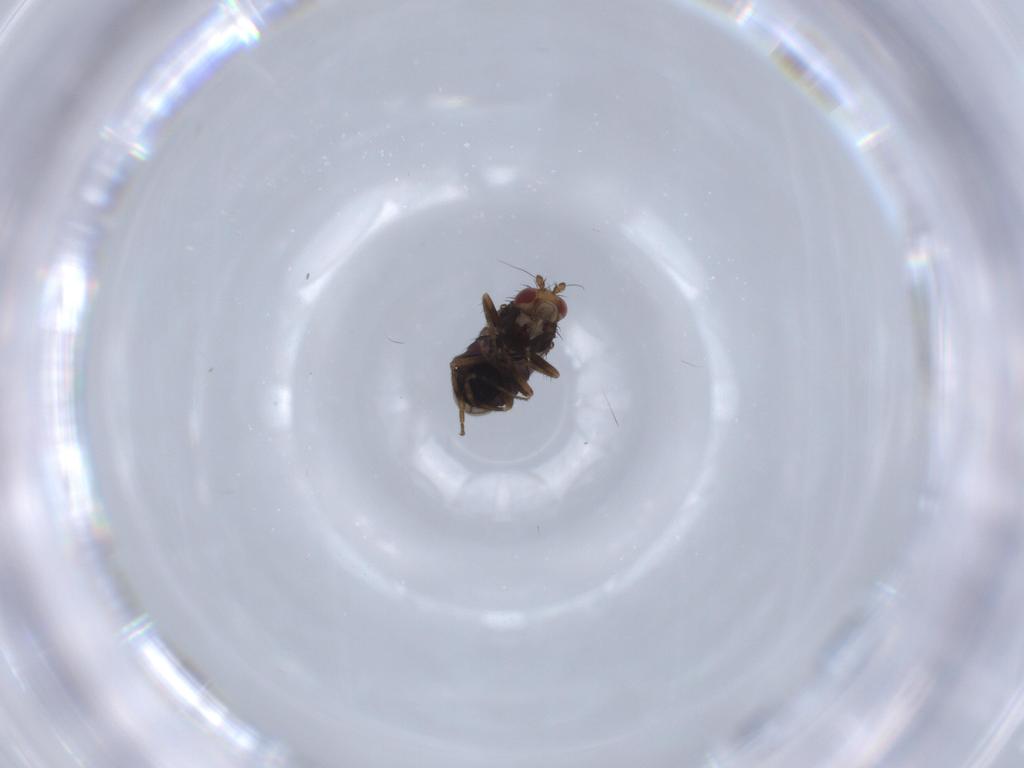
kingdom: Animalia
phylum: Arthropoda
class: Insecta
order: Diptera
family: Sciaridae
